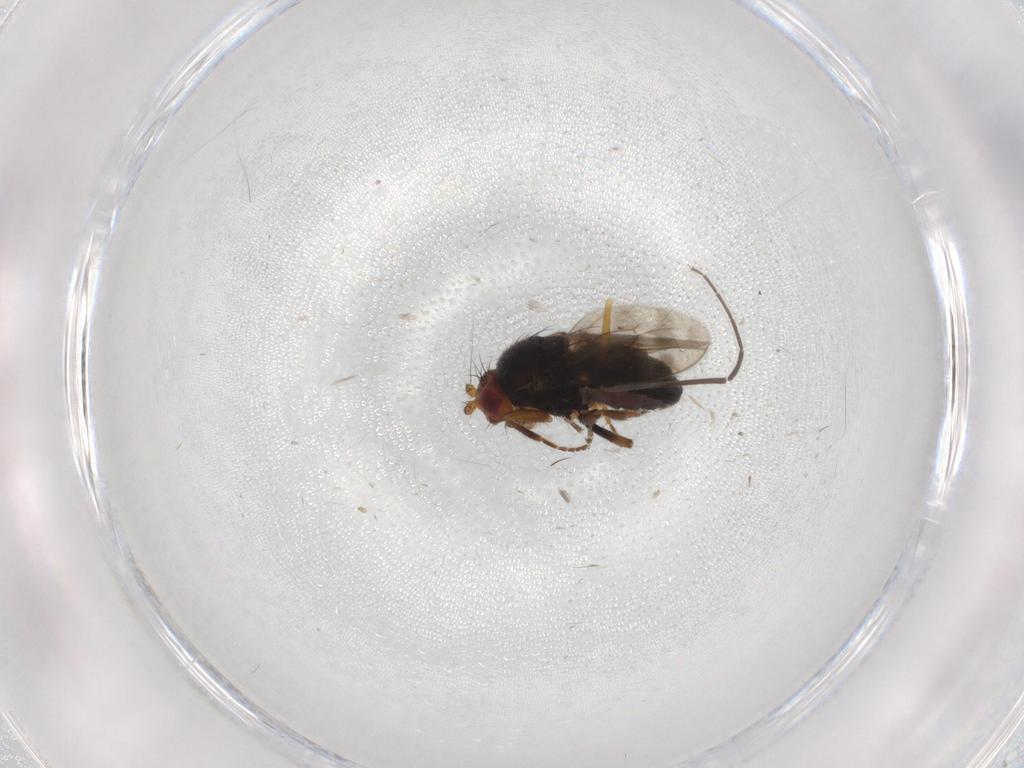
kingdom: Animalia
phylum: Arthropoda
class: Insecta
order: Diptera
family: Sphaeroceridae
